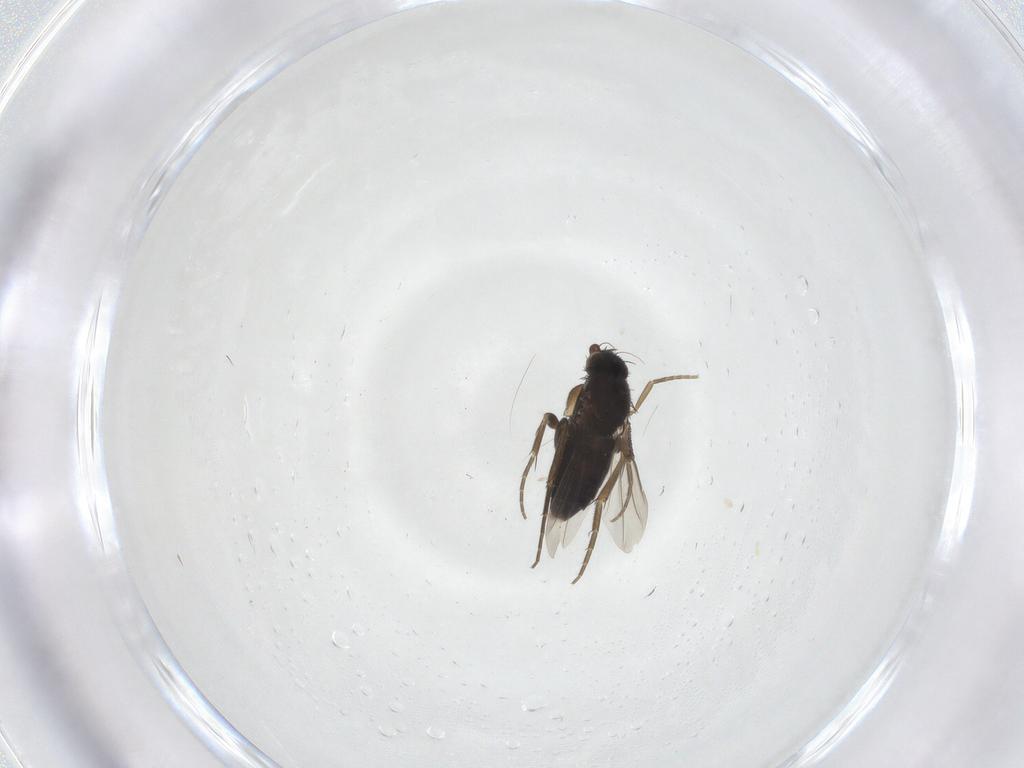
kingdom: Animalia
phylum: Arthropoda
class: Insecta
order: Diptera
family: Phoridae
